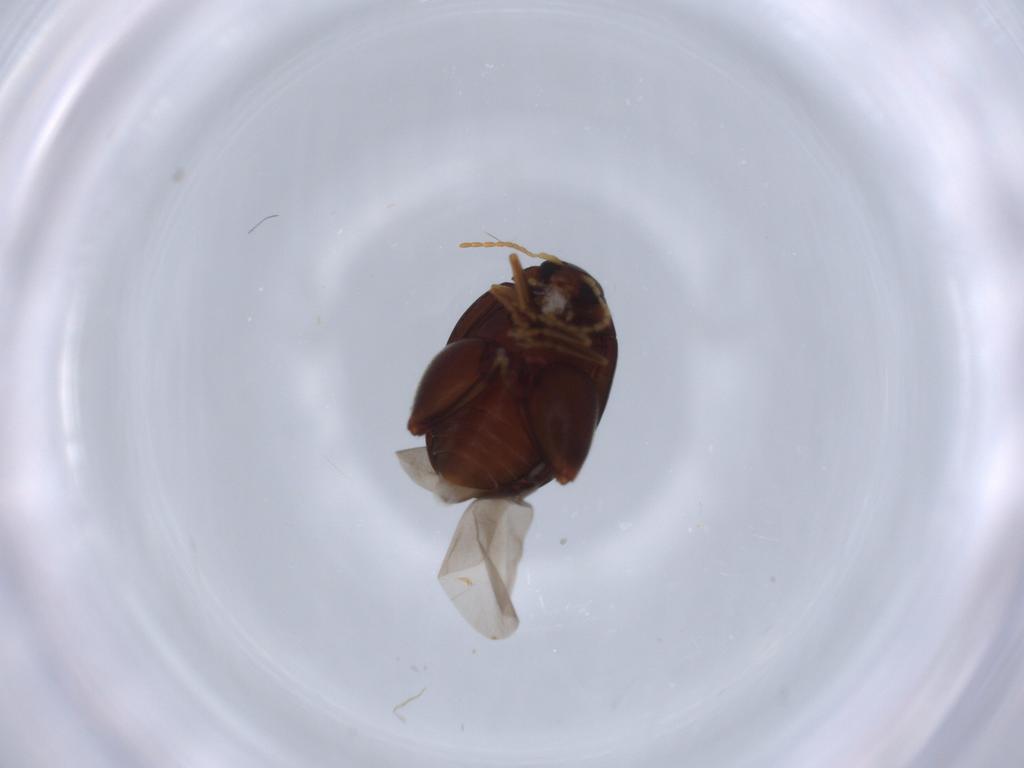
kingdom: Animalia
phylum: Arthropoda
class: Insecta
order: Coleoptera
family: Chrysomelidae
